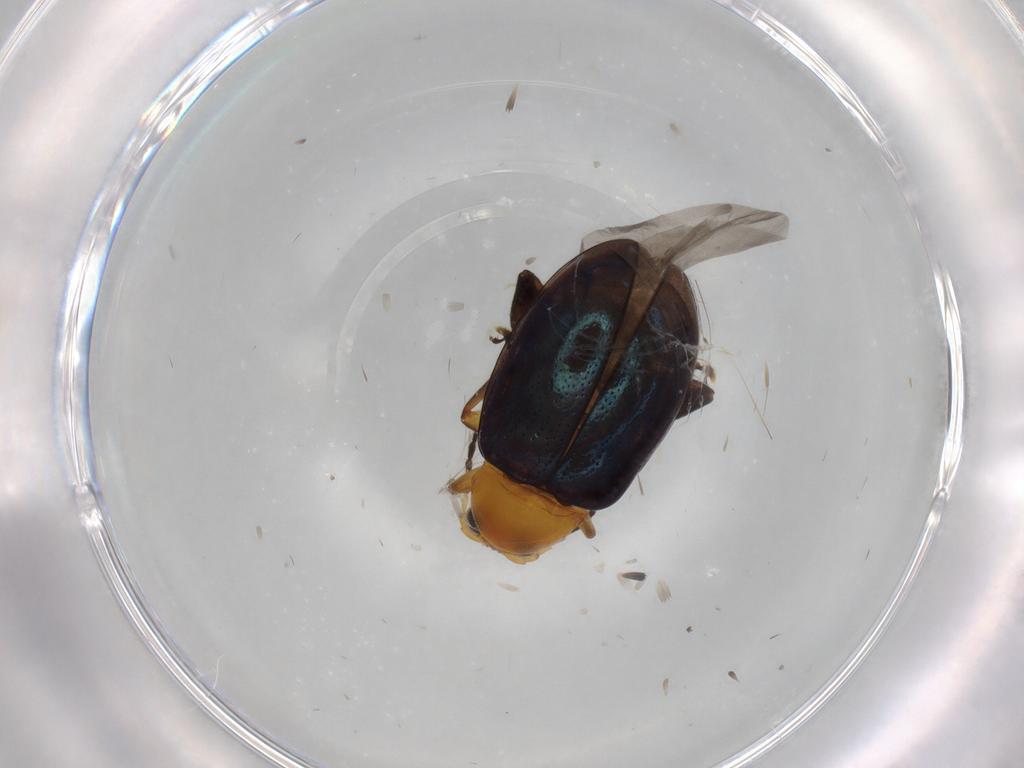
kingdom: Animalia
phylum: Arthropoda
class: Insecta
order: Coleoptera
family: Chrysomelidae
